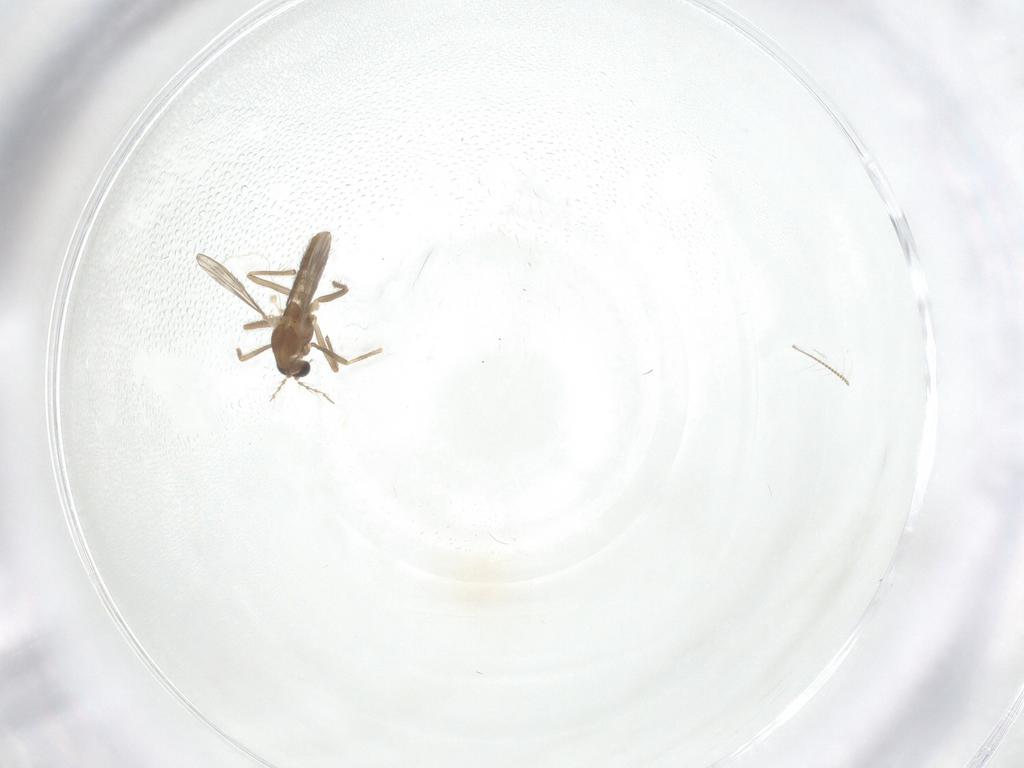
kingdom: Animalia
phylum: Arthropoda
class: Insecta
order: Diptera
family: Chironomidae
